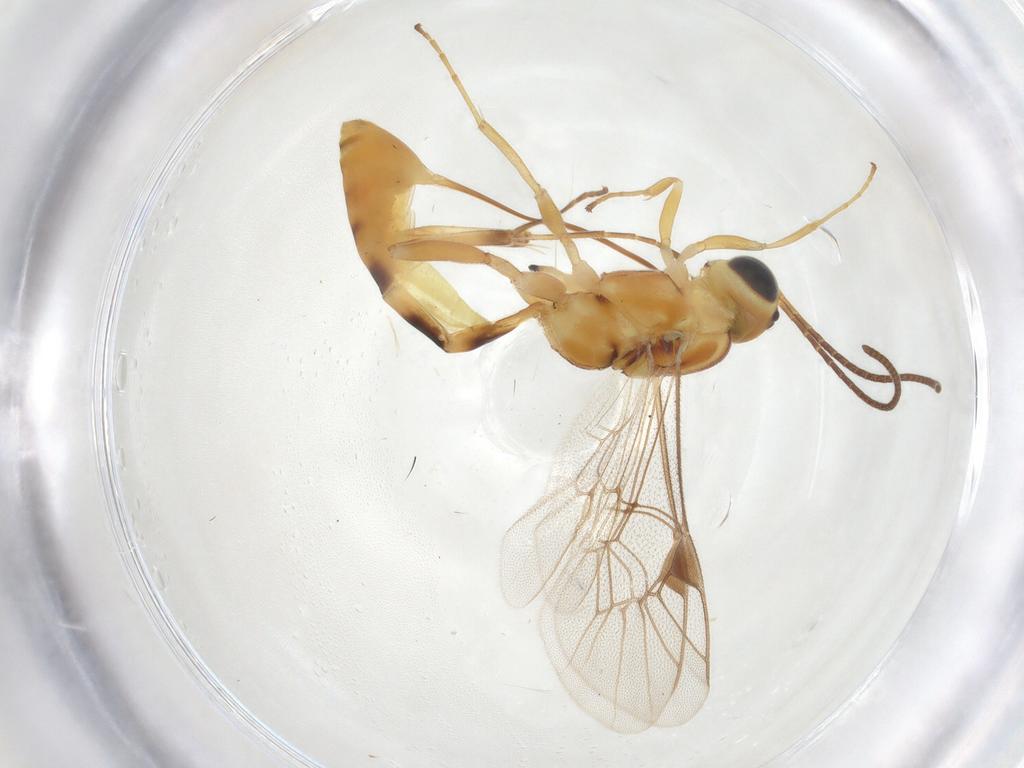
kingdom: Animalia
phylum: Arthropoda
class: Insecta
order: Hymenoptera
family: Ichneumonidae
